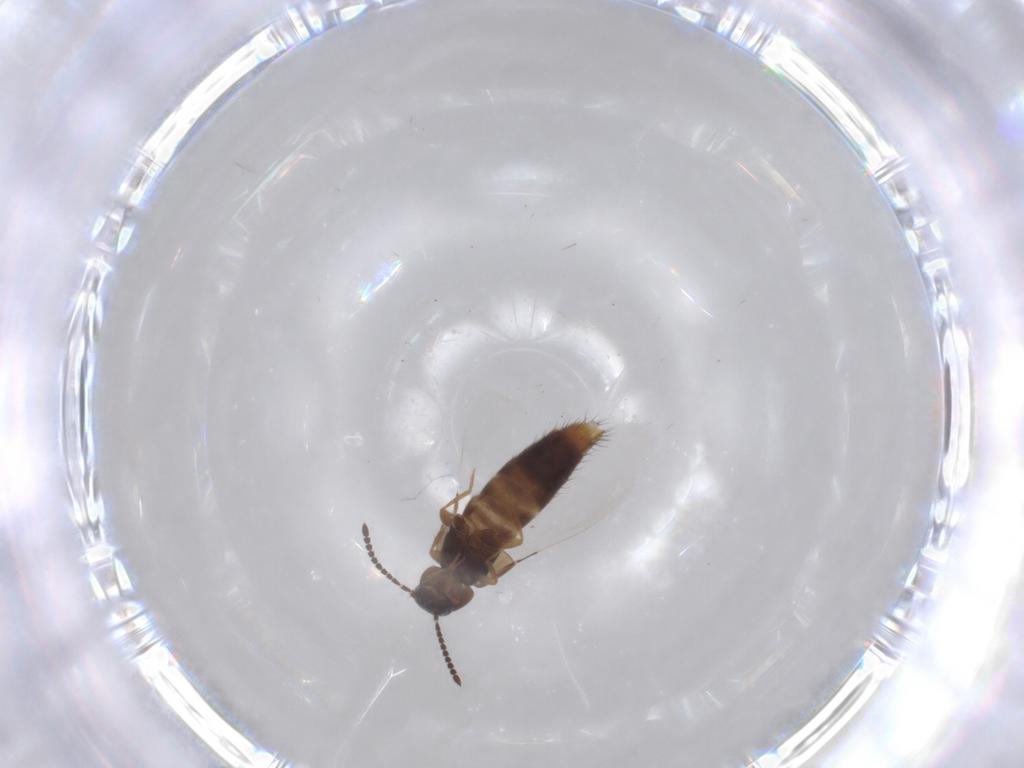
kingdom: Animalia
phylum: Arthropoda
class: Insecta
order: Coleoptera
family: Staphylinidae
